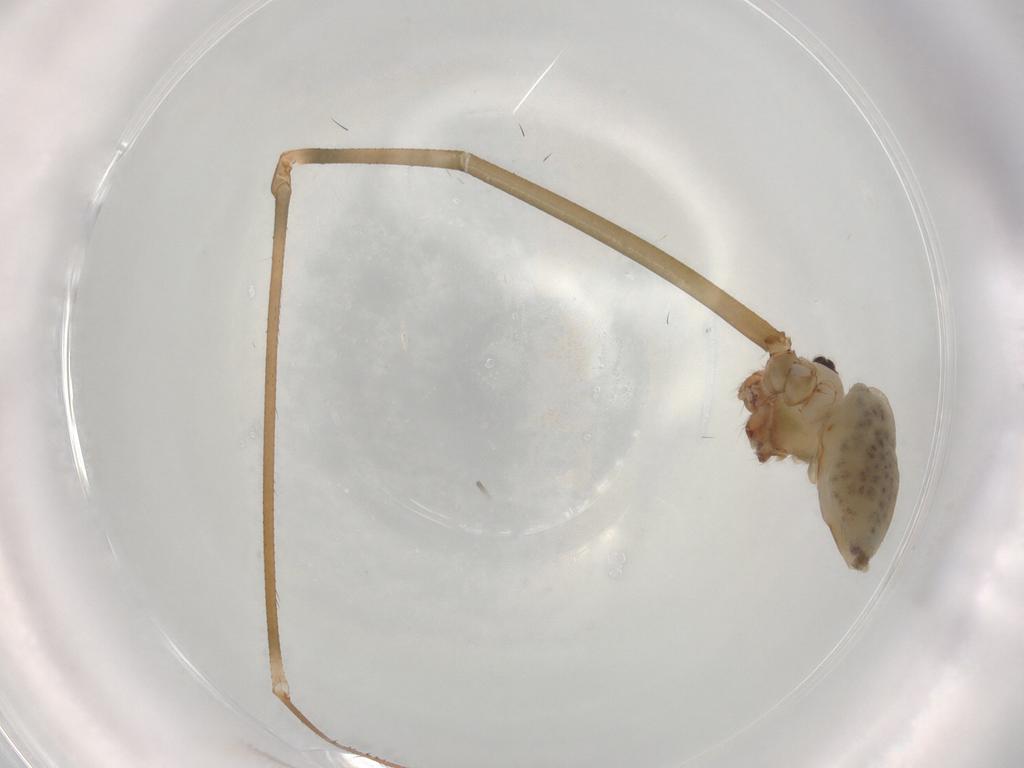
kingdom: Animalia
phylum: Arthropoda
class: Arachnida
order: Araneae
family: Pholcidae
